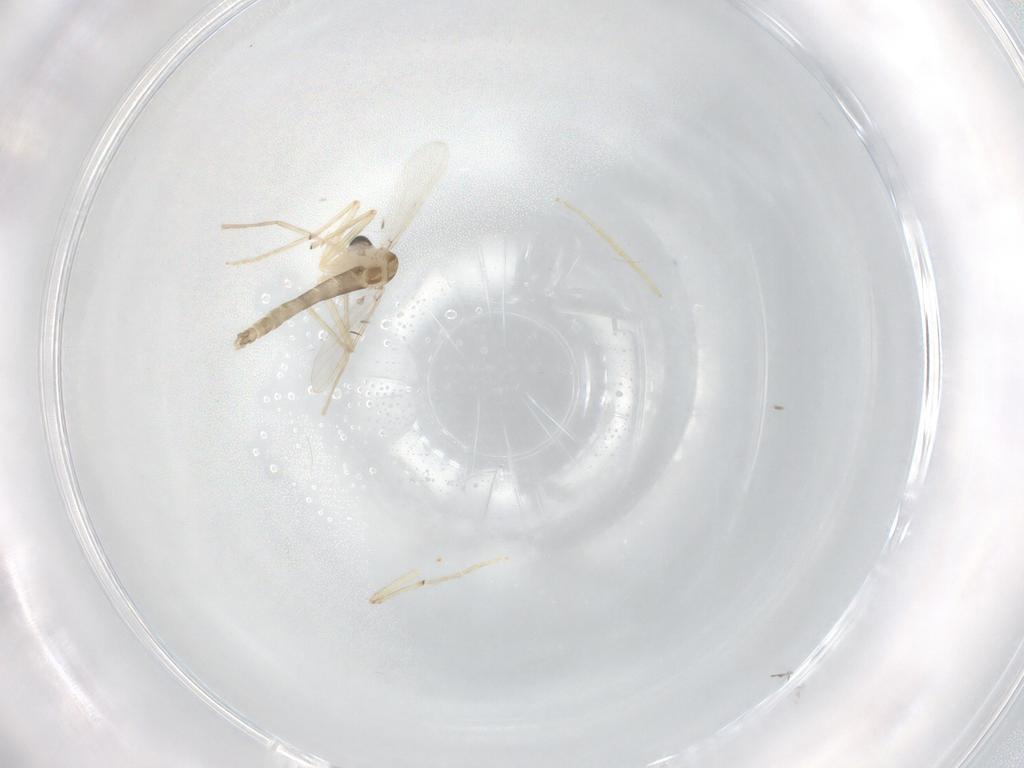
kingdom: Animalia
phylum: Arthropoda
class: Insecta
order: Diptera
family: Chironomidae
